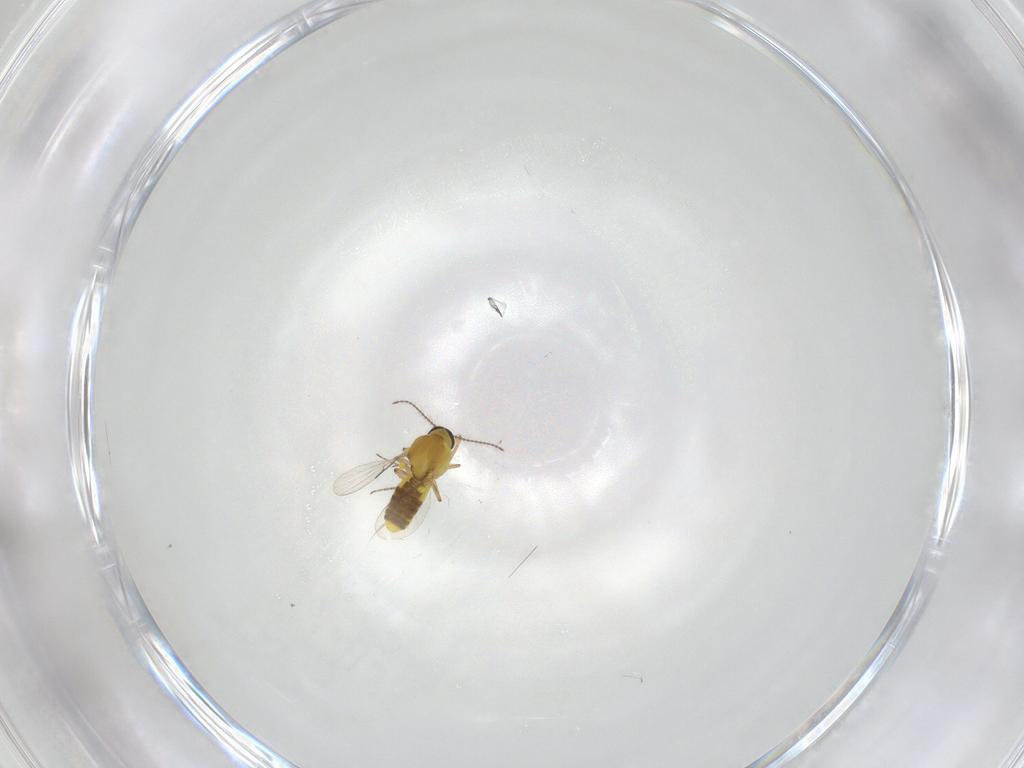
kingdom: Animalia
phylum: Arthropoda
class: Insecta
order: Diptera
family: Ceratopogonidae
